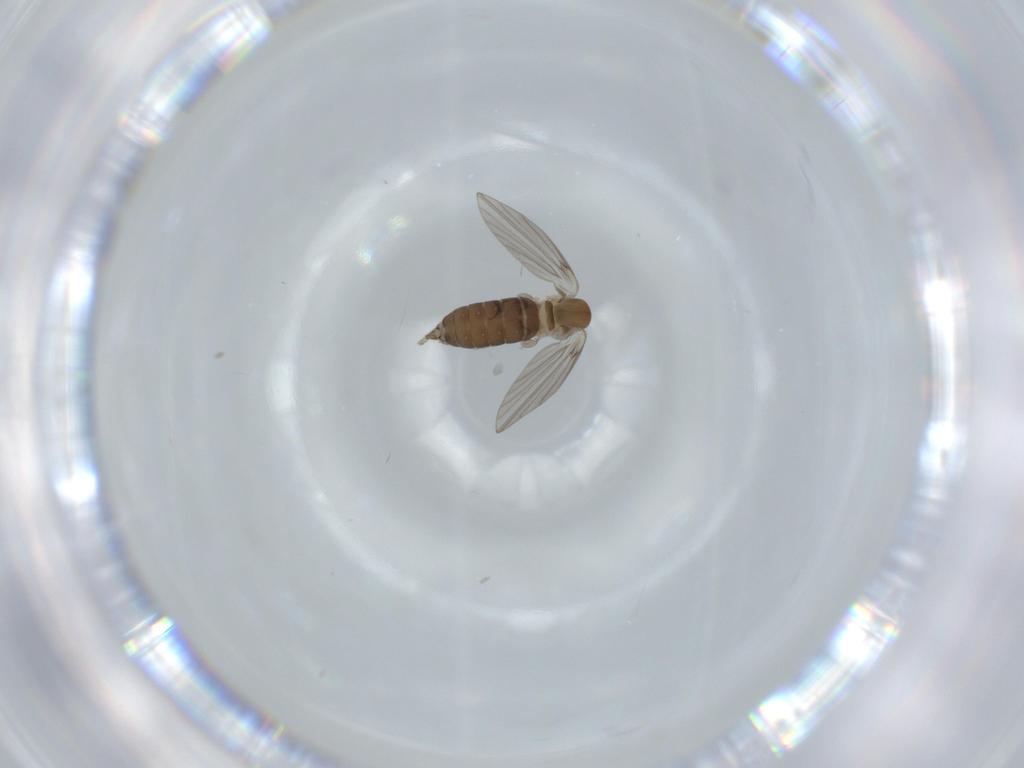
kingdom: Animalia
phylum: Arthropoda
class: Insecta
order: Diptera
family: Psychodidae
